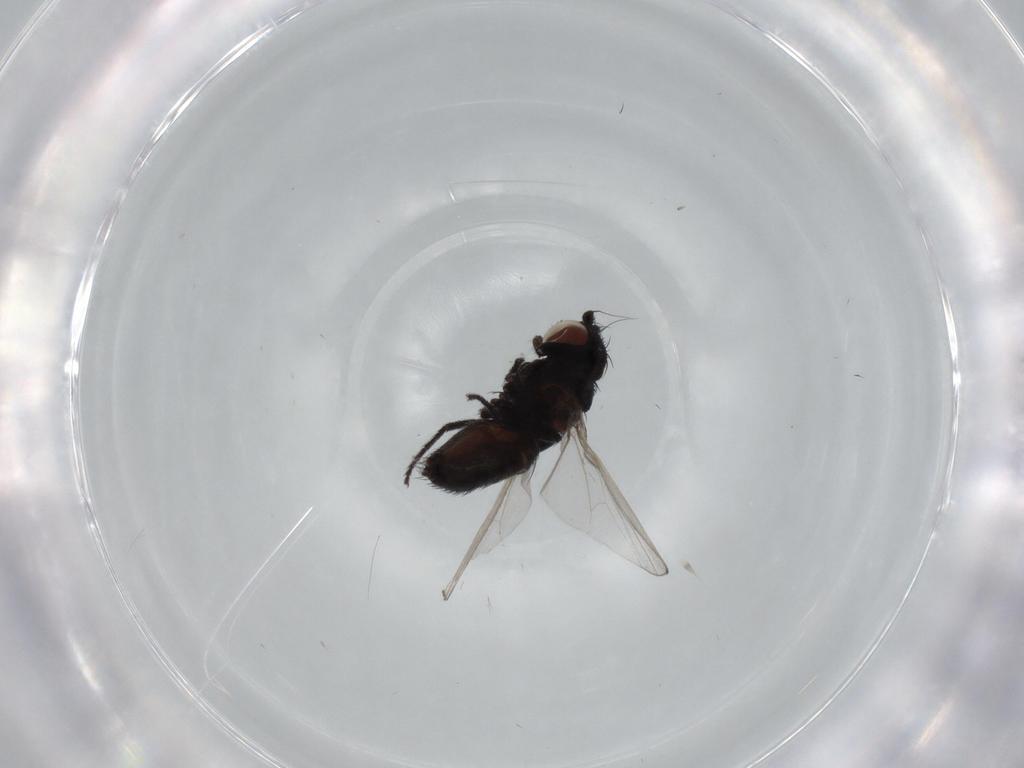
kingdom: Animalia
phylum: Arthropoda
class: Insecta
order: Diptera
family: Milichiidae
